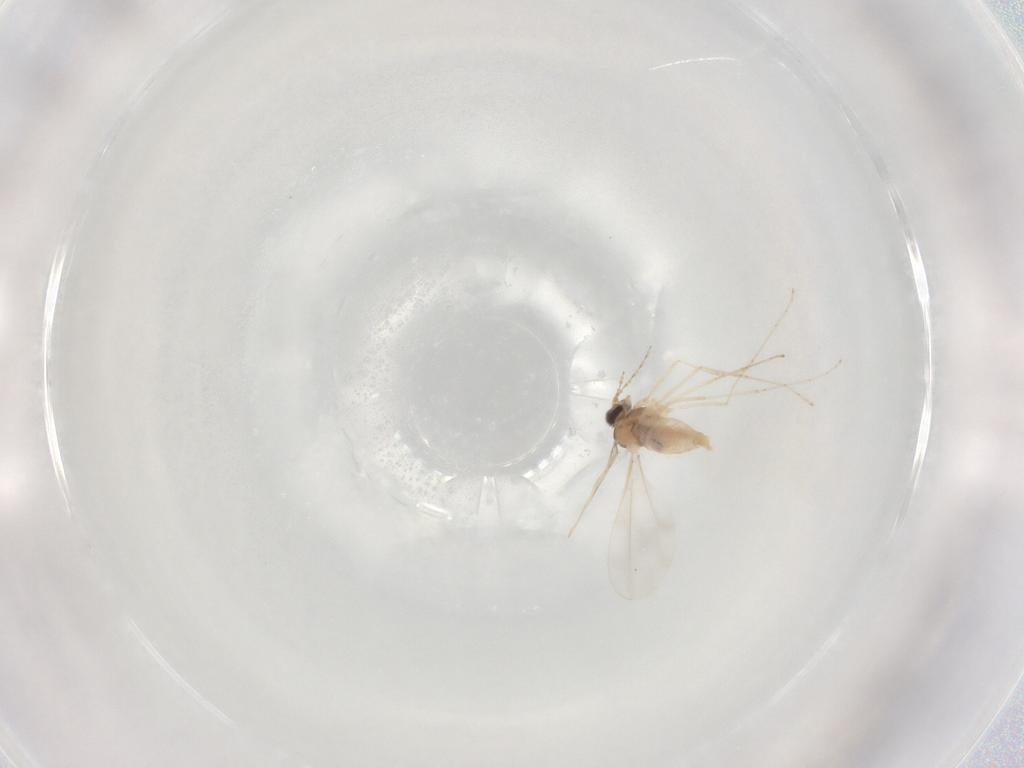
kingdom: Animalia
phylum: Arthropoda
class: Insecta
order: Diptera
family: Cecidomyiidae
